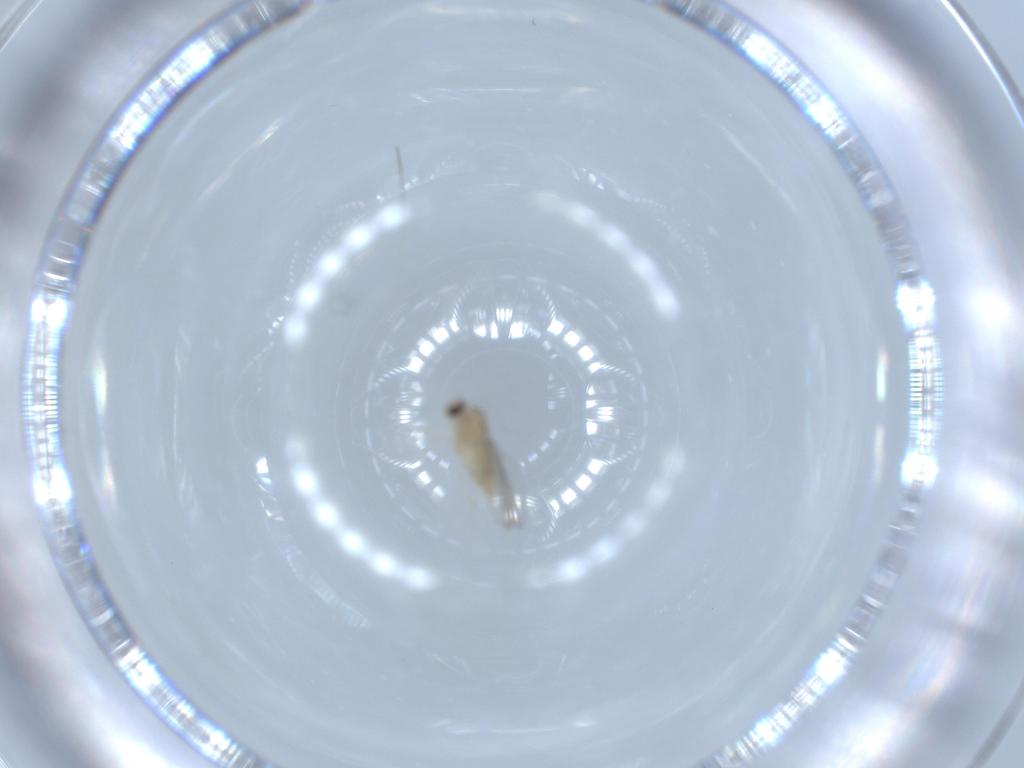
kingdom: Animalia
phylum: Arthropoda
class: Insecta
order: Diptera
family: Cecidomyiidae
